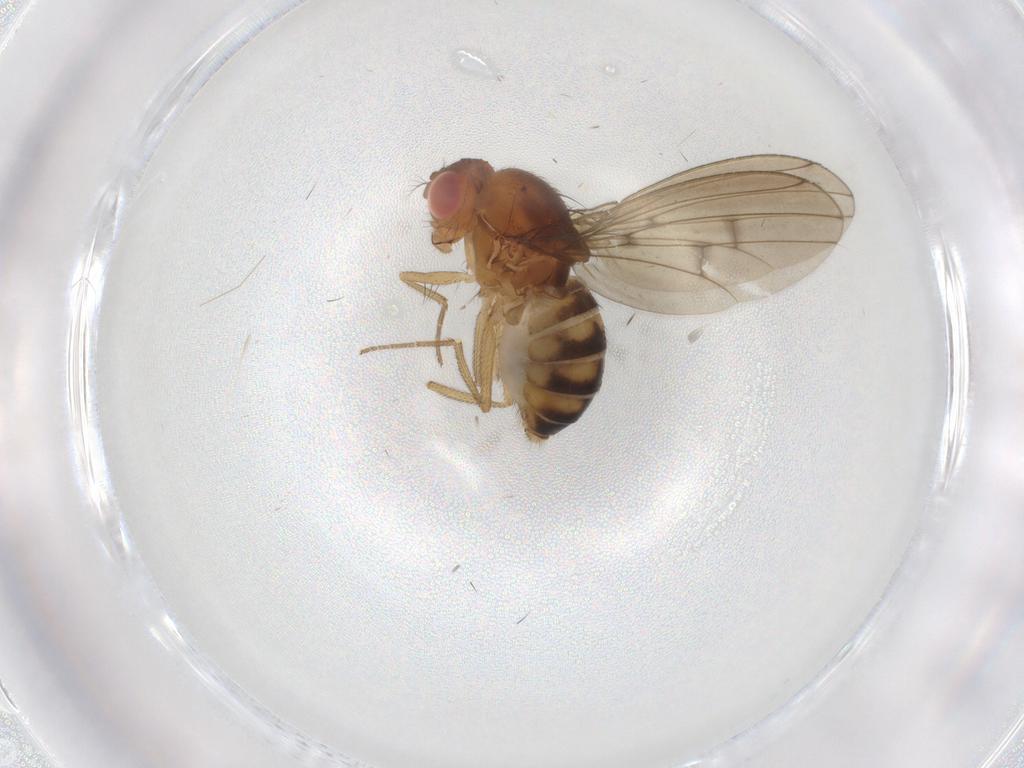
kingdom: Animalia
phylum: Arthropoda
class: Insecta
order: Diptera
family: Drosophilidae
